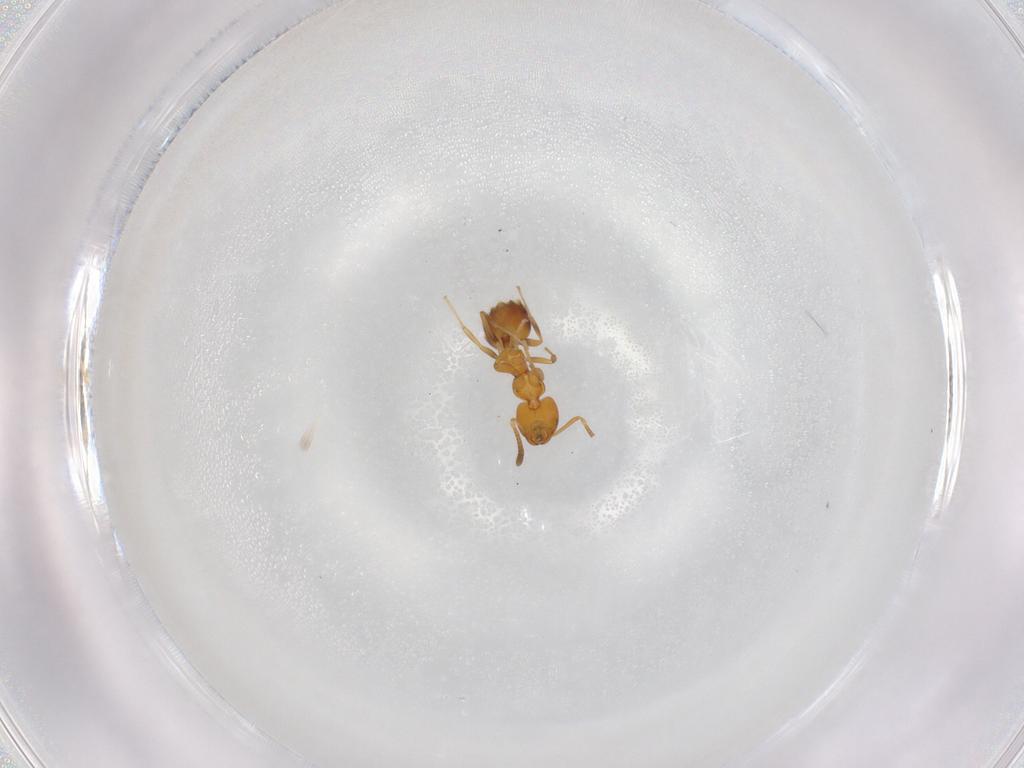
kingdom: Animalia
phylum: Arthropoda
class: Insecta
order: Hymenoptera
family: Formicidae
